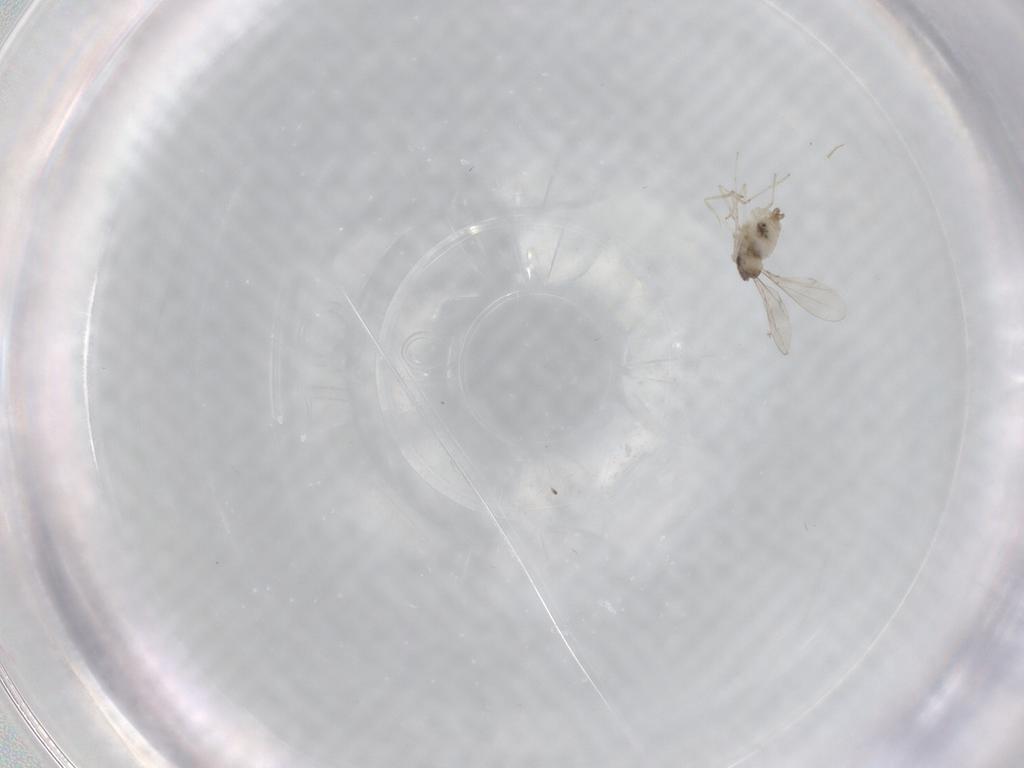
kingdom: Animalia
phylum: Arthropoda
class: Insecta
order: Diptera
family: Cecidomyiidae
